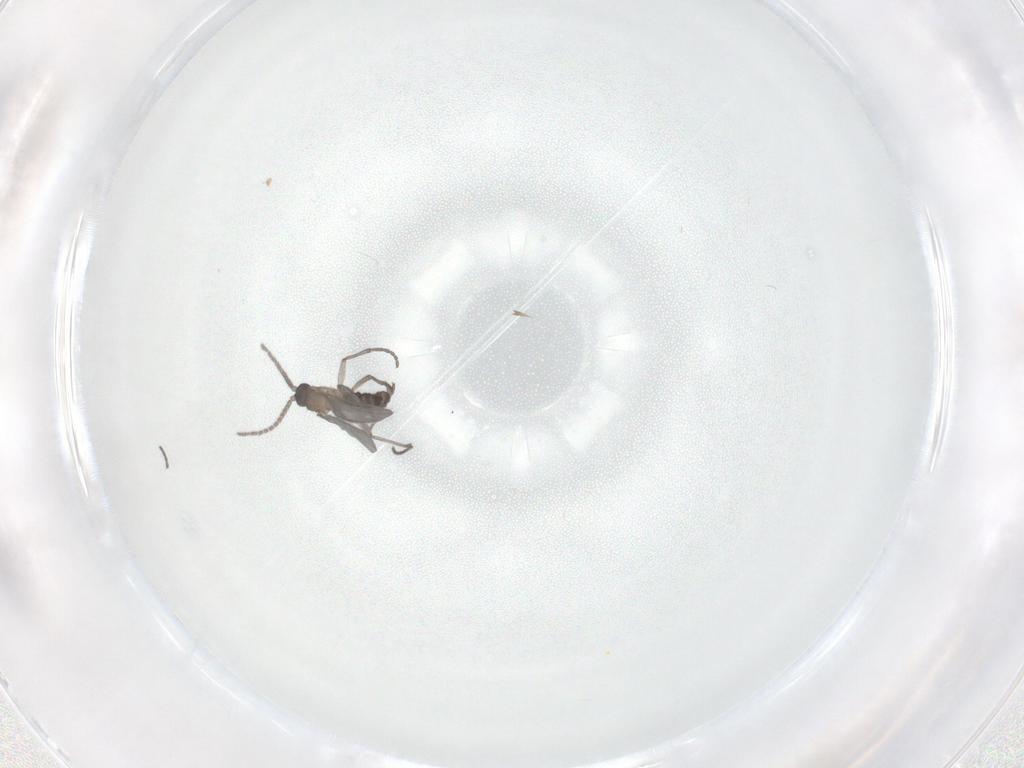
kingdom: Animalia
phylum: Arthropoda
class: Insecta
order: Diptera
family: Sciaridae
